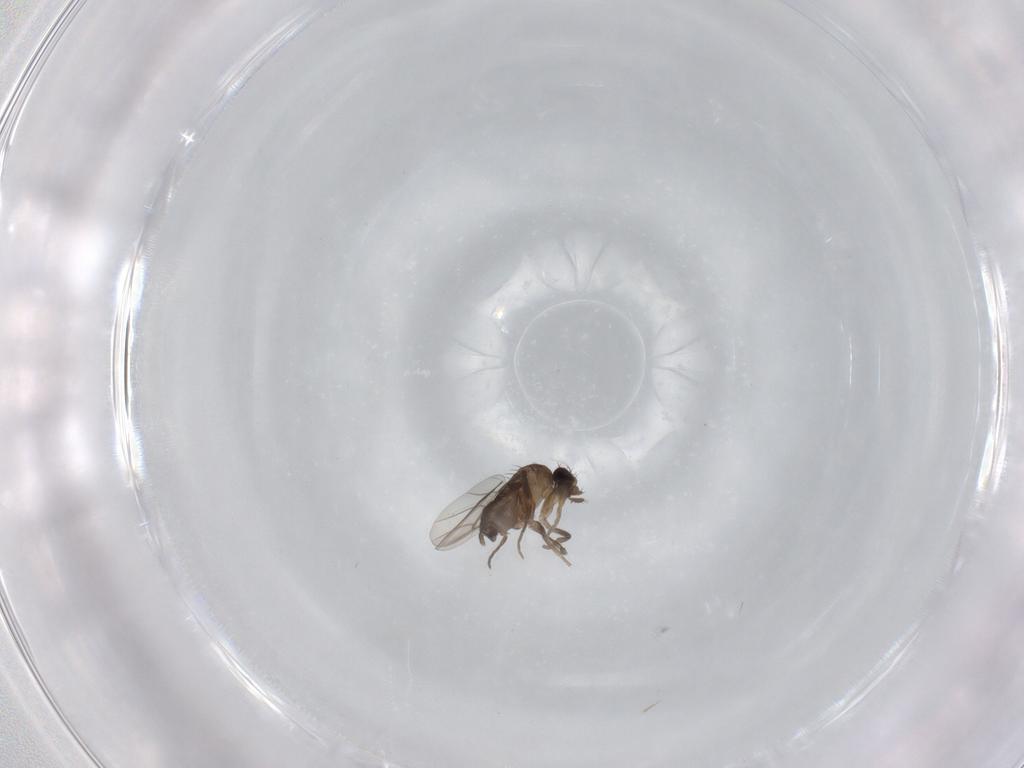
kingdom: Animalia
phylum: Arthropoda
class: Insecta
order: Diptera
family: Phoridae
